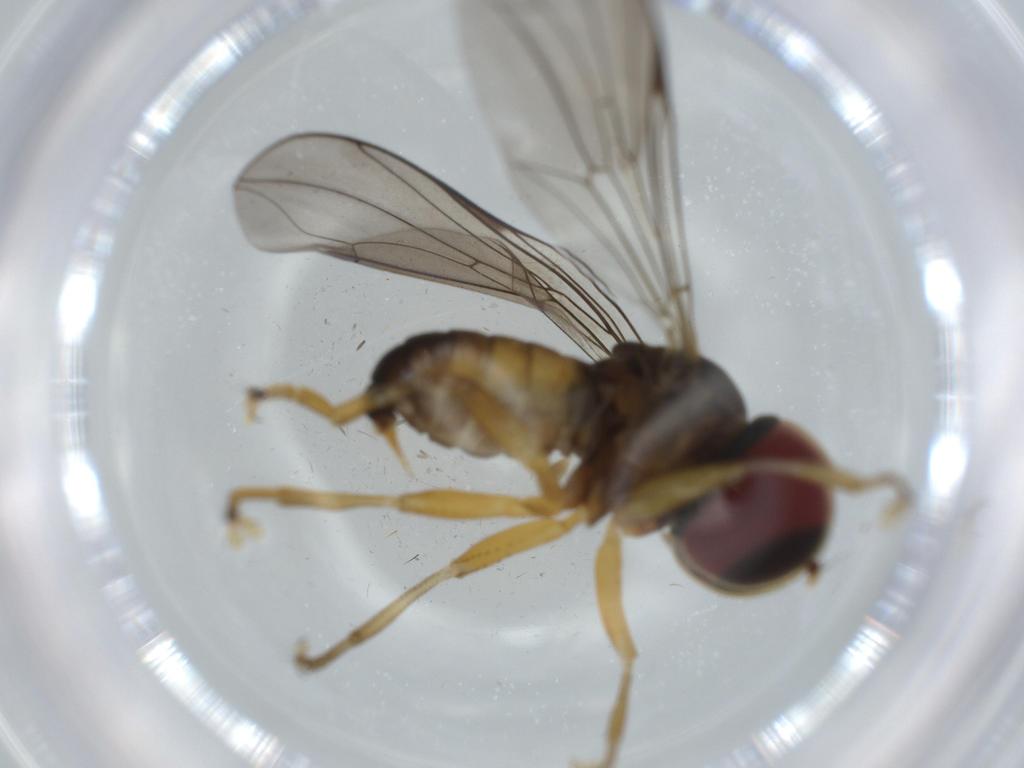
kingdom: Animalia
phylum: Arthropoda
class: Insecta
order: Diptera
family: Pipunculidae
